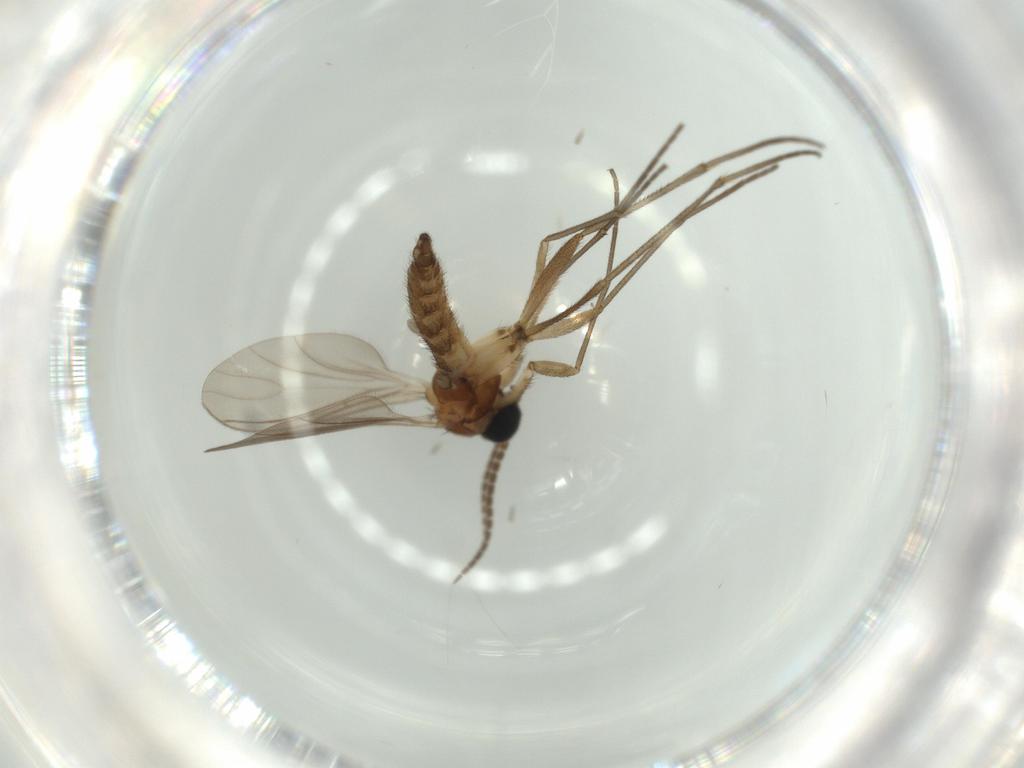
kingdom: Animalia
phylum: Arthropoda
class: Insecta
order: Diptera
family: Sciaridae
